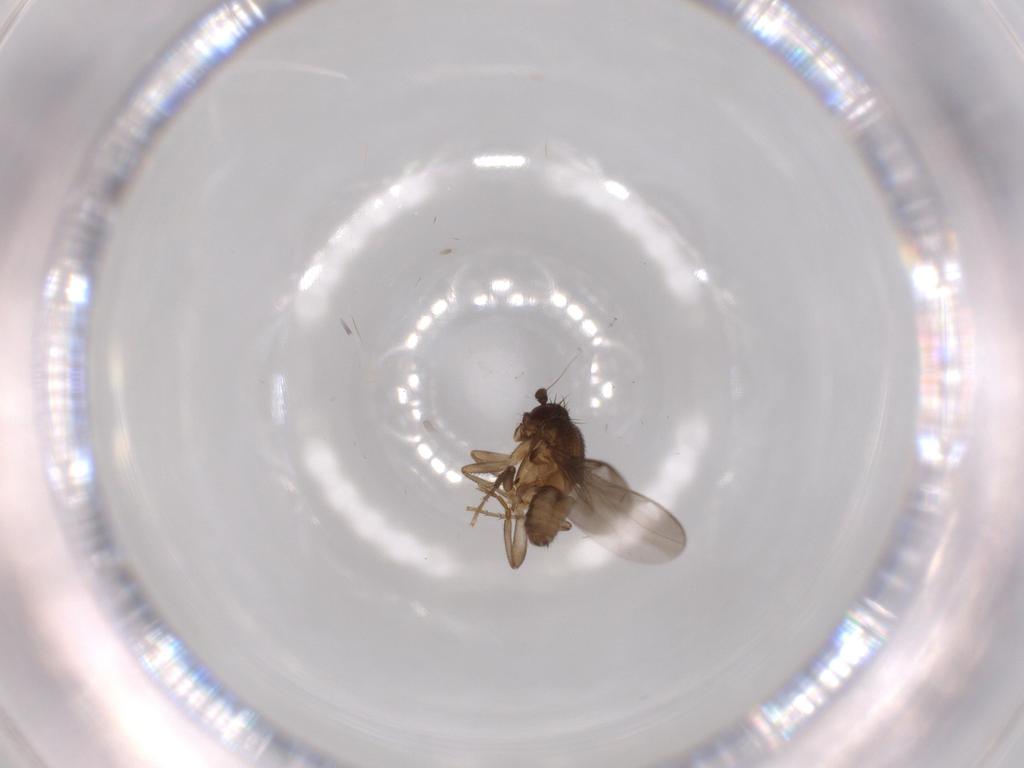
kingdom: Animalia
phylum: Arthropoda
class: Insecta
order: Diptera
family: Sphaeroceridae
